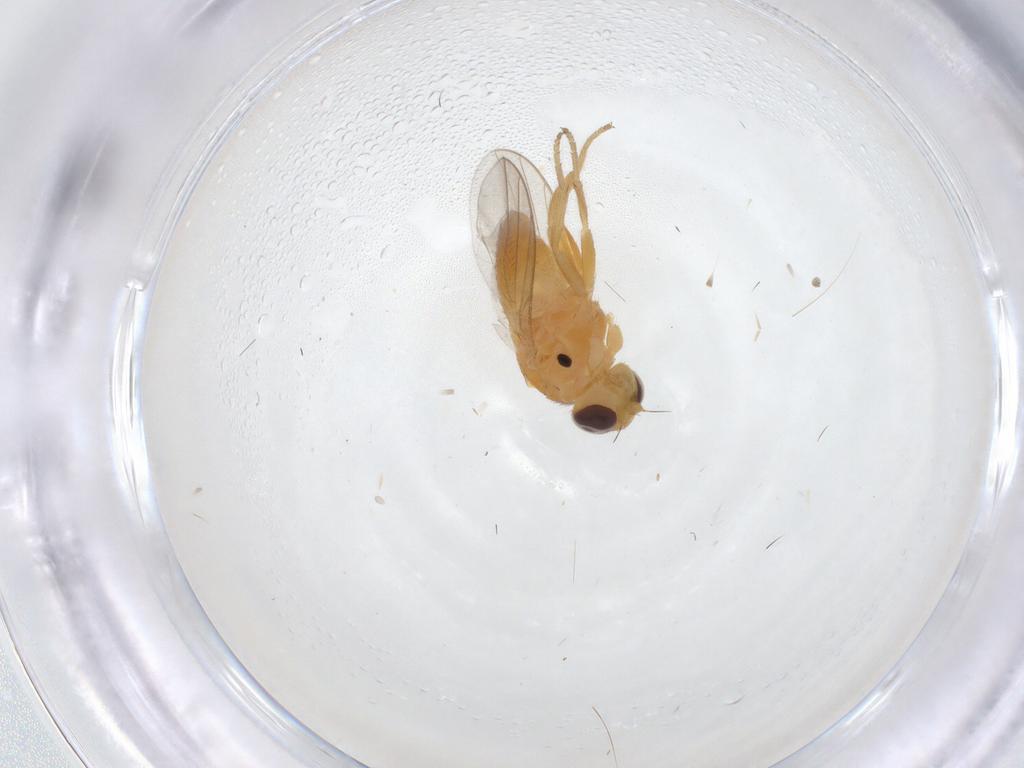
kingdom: Animalia
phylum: Arthropoda
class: Insecta
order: Diptera
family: Chloropidae
